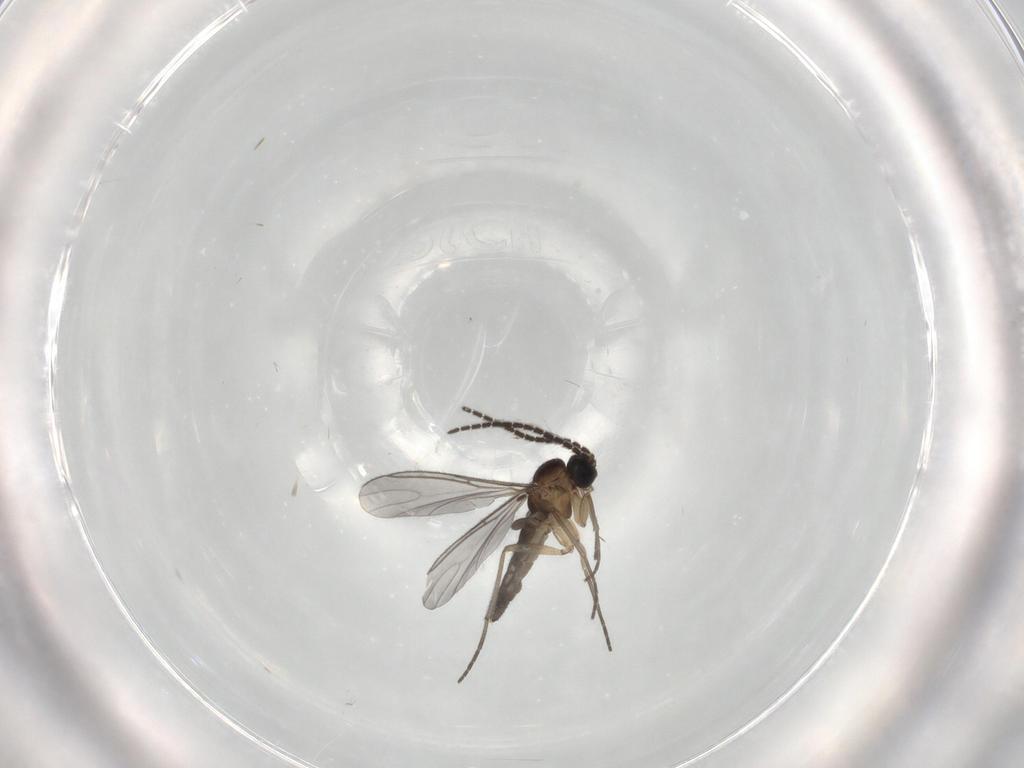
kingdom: Animalia
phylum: Arthropoda
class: Insecta
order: Diptera
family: Sciaridae
